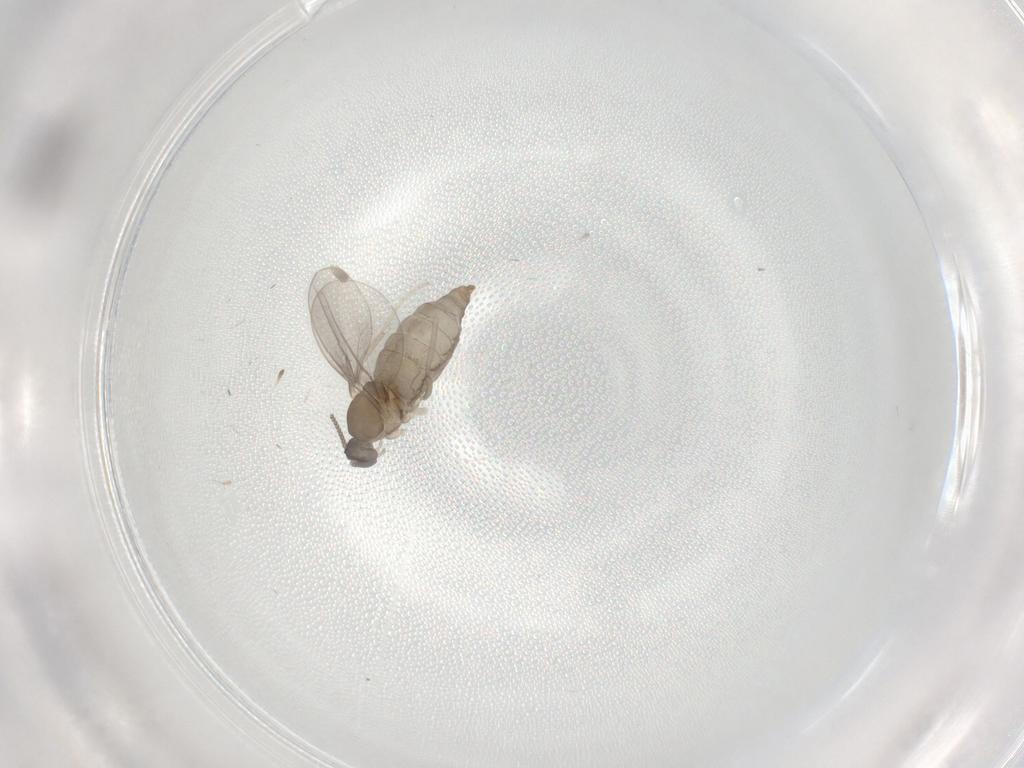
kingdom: Animalia
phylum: Arthropoda
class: Insecta
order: Diptera
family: Cecidomyiidae
